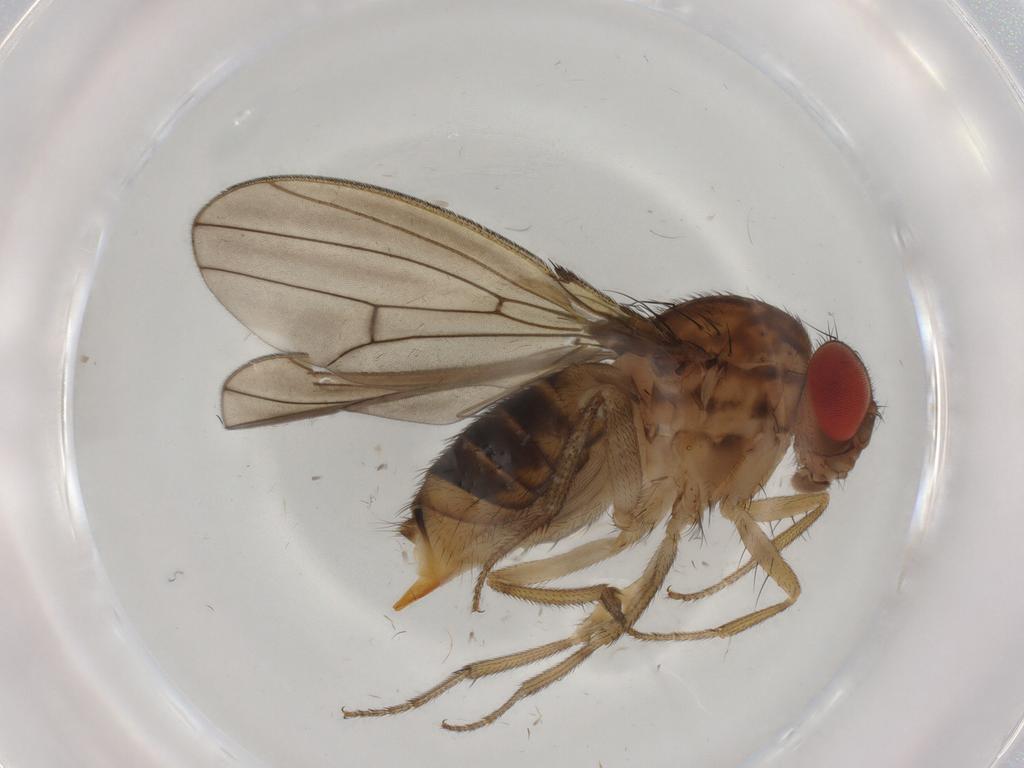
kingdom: Animalia
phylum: Arthropoda
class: Insecta
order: Diptera
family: Drosophilidae
